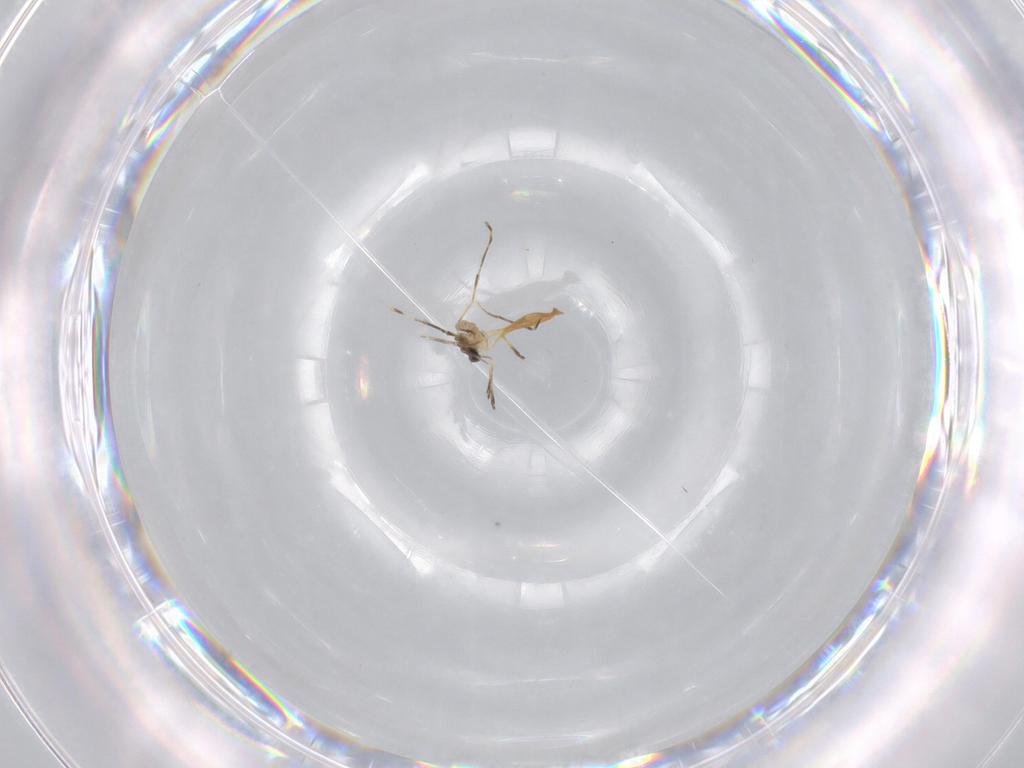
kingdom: Animalia
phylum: Arthropoda
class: Insecta
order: Diptera
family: Cecidomyiidae
